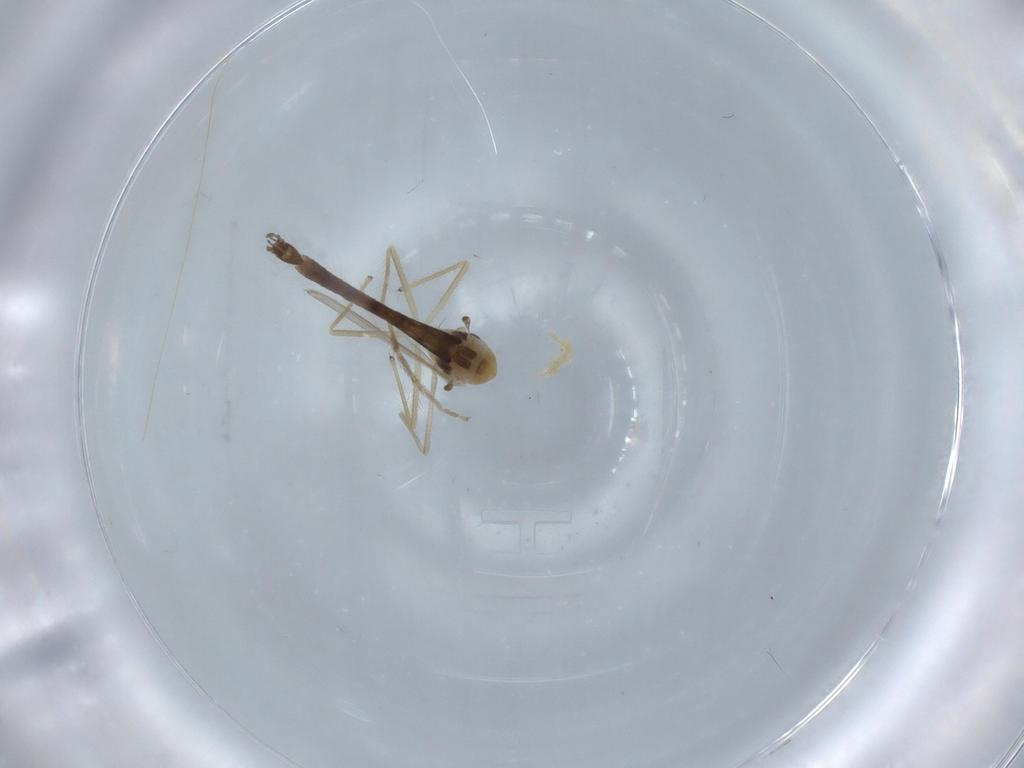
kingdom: Animalia
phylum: Arthropoda
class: Insecta
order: Diptera
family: Chironomidae
